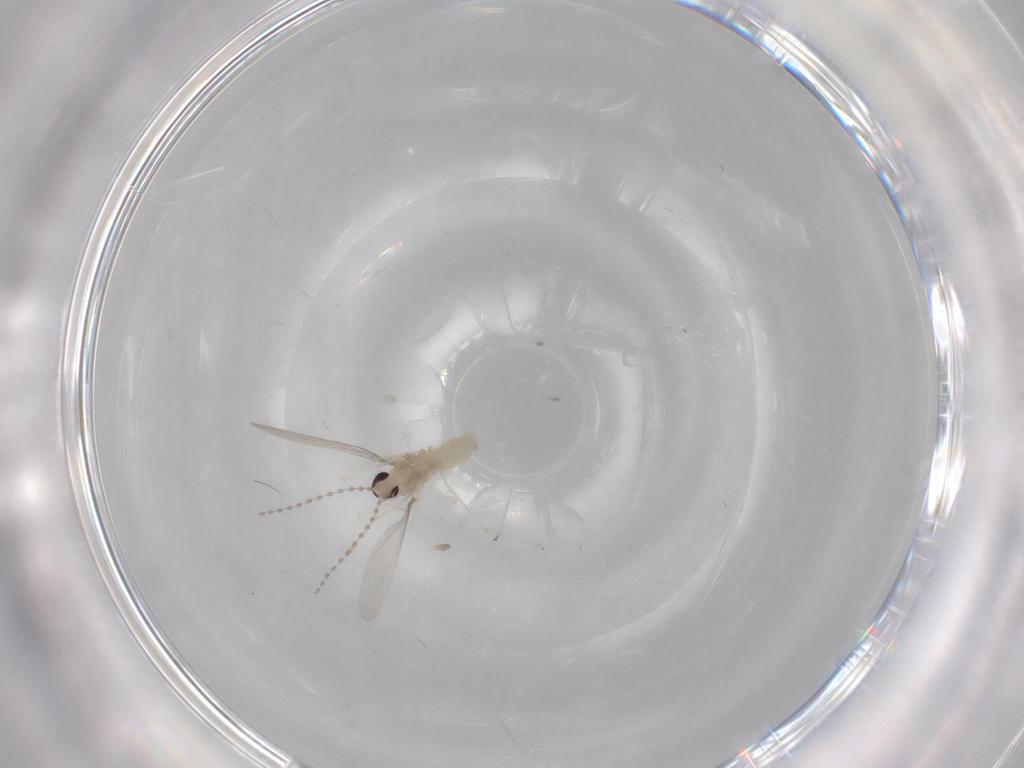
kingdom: Animalia
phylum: Arthropoda
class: Insecta
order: Diptera
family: Cecidomyiidae
